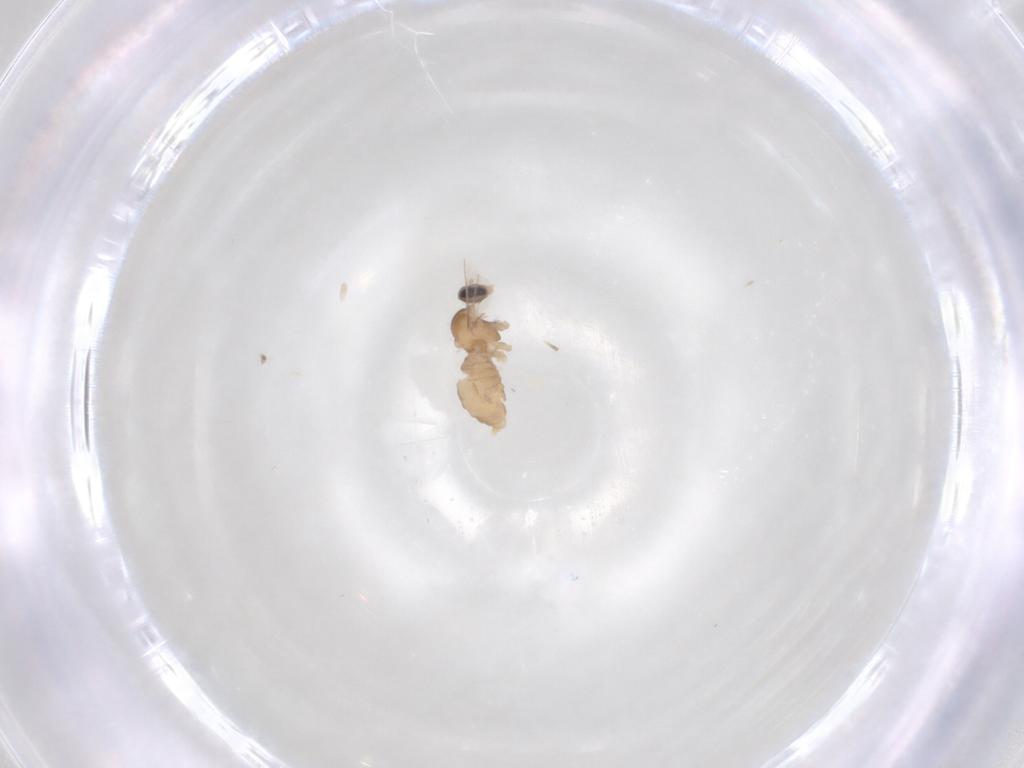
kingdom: Animalia
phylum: Arthropoda
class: Insecta
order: Diptera
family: Cecidomyiidae
